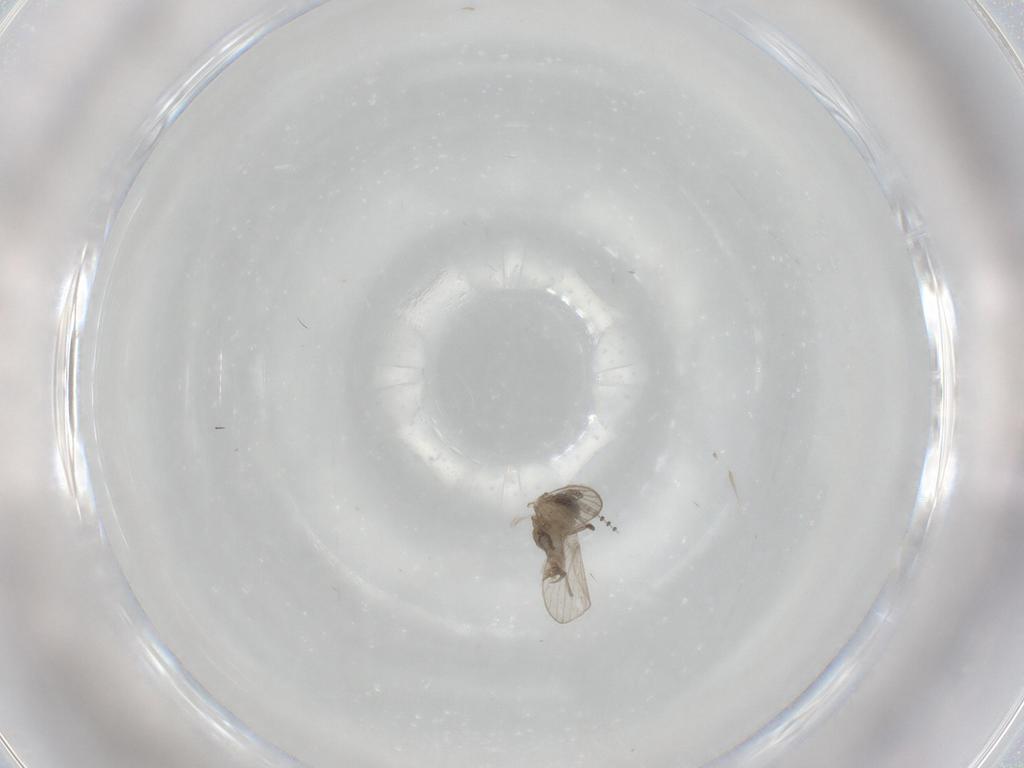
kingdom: Animalia
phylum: Arthropoda
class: Insecta
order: Diptera
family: Psychodidae
